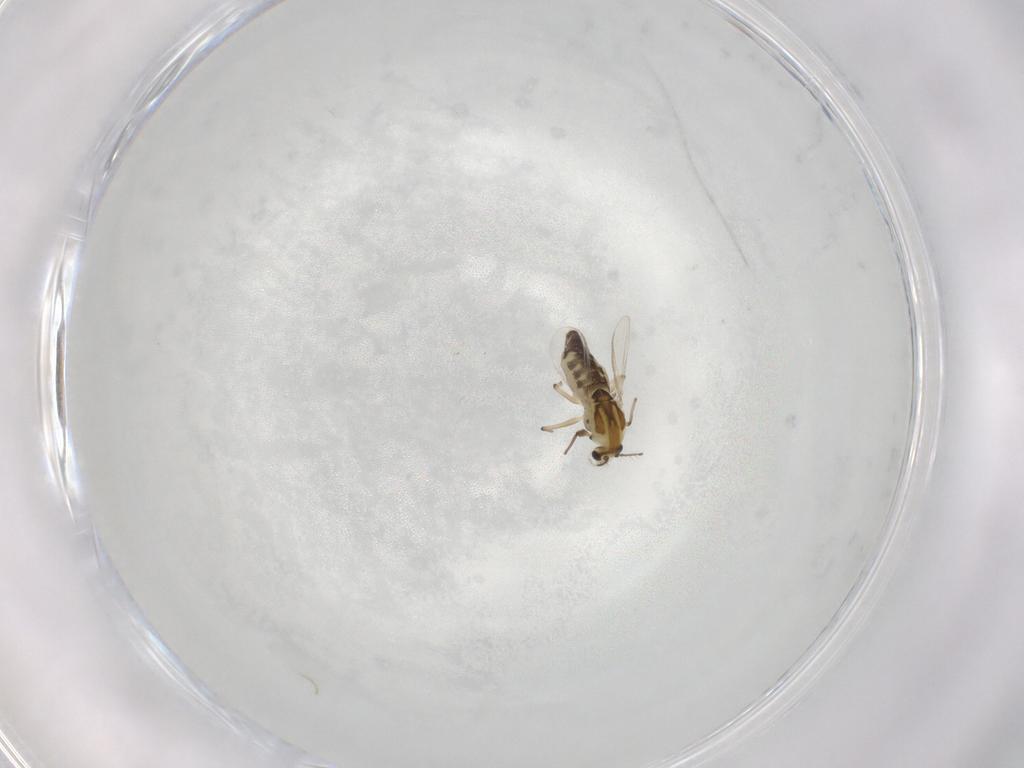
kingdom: Animalia
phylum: Arthropoda
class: Insecta
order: Diptera
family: Chironomidae
